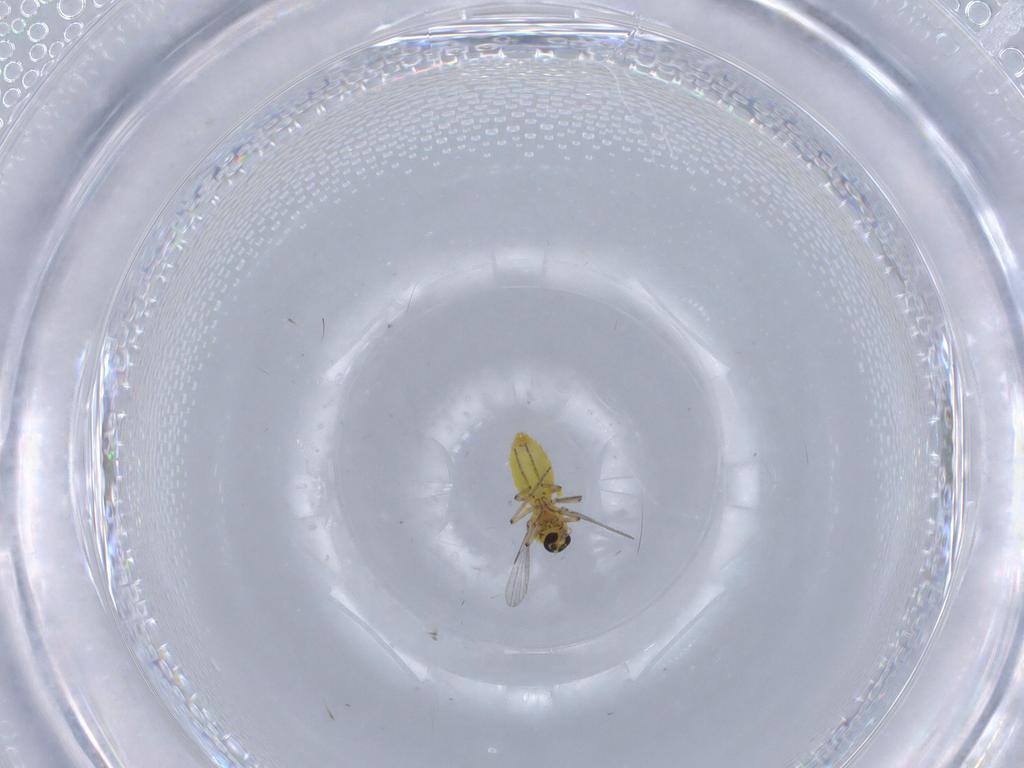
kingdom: Animalia
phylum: Arthropoda
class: Insecta
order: Diptera
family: Ceratopogonidae
